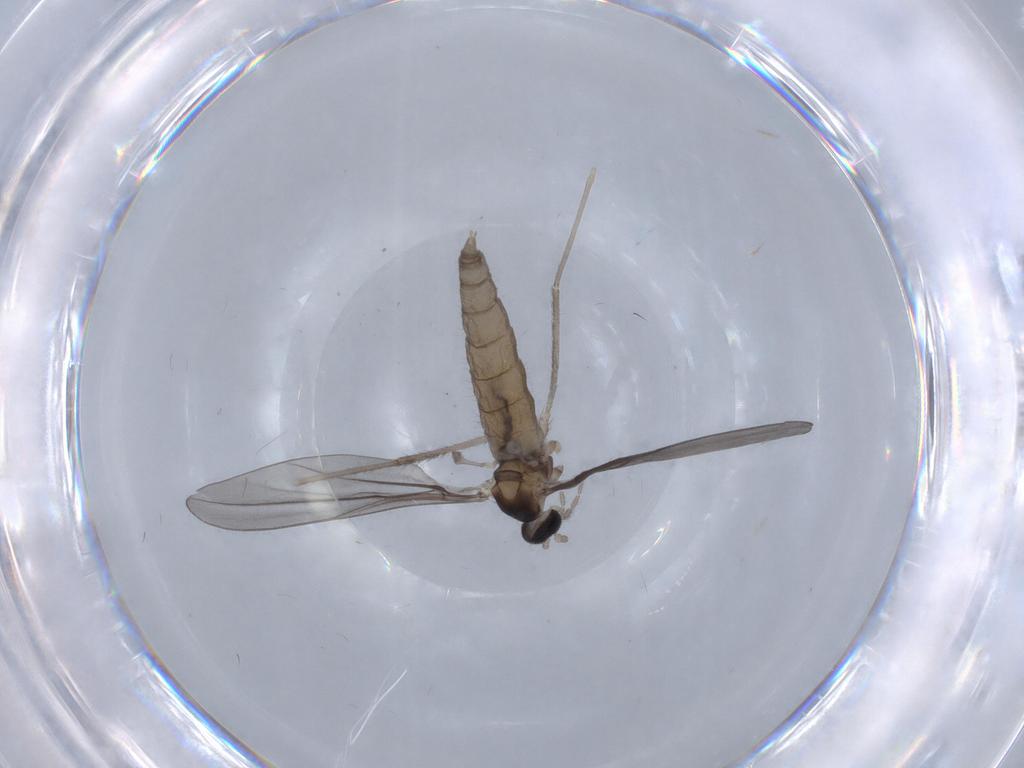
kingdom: Animalia
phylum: Arthropoda
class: Insecta
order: Diptera
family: Cecidomyiidae
